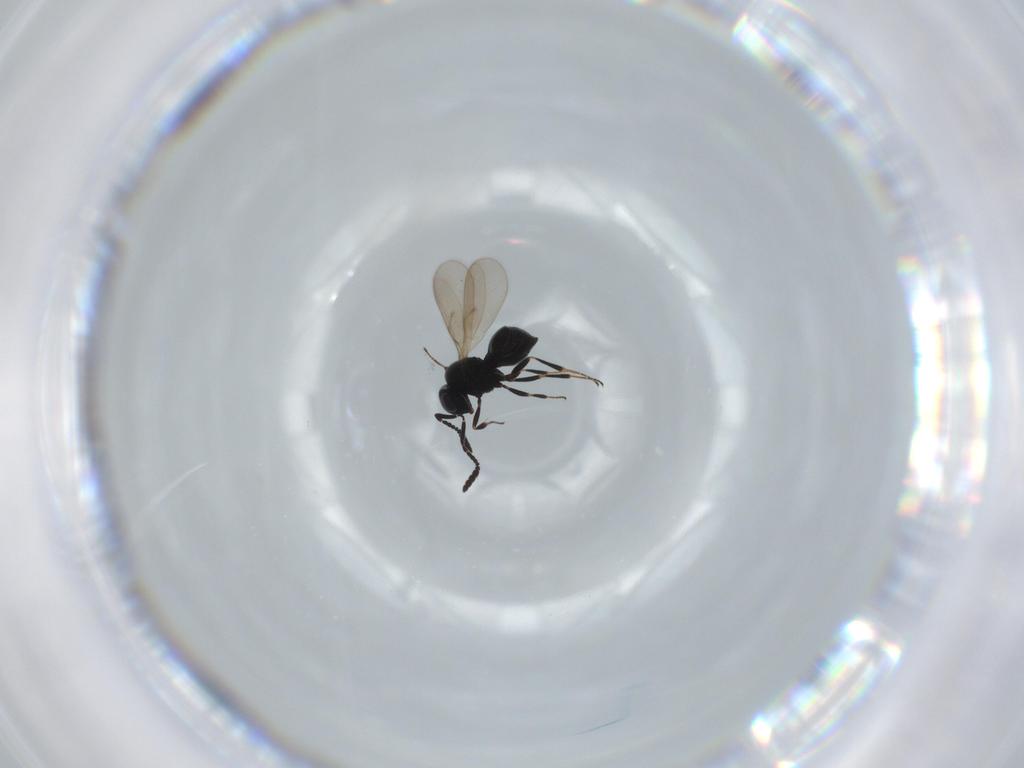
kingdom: Animalia
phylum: Arthropoda
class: Insecta
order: Hymenoptera
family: Scelionidae
